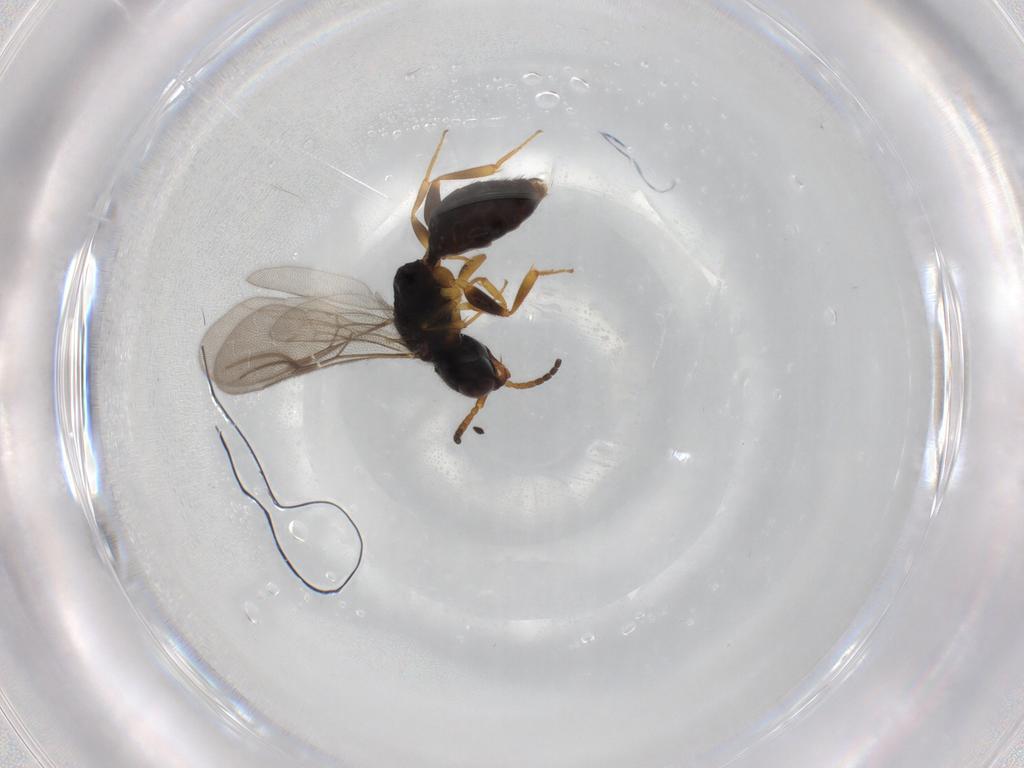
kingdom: Animalia
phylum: Arthropoda
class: Insecta
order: Hymenoptera
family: Bethylidae
